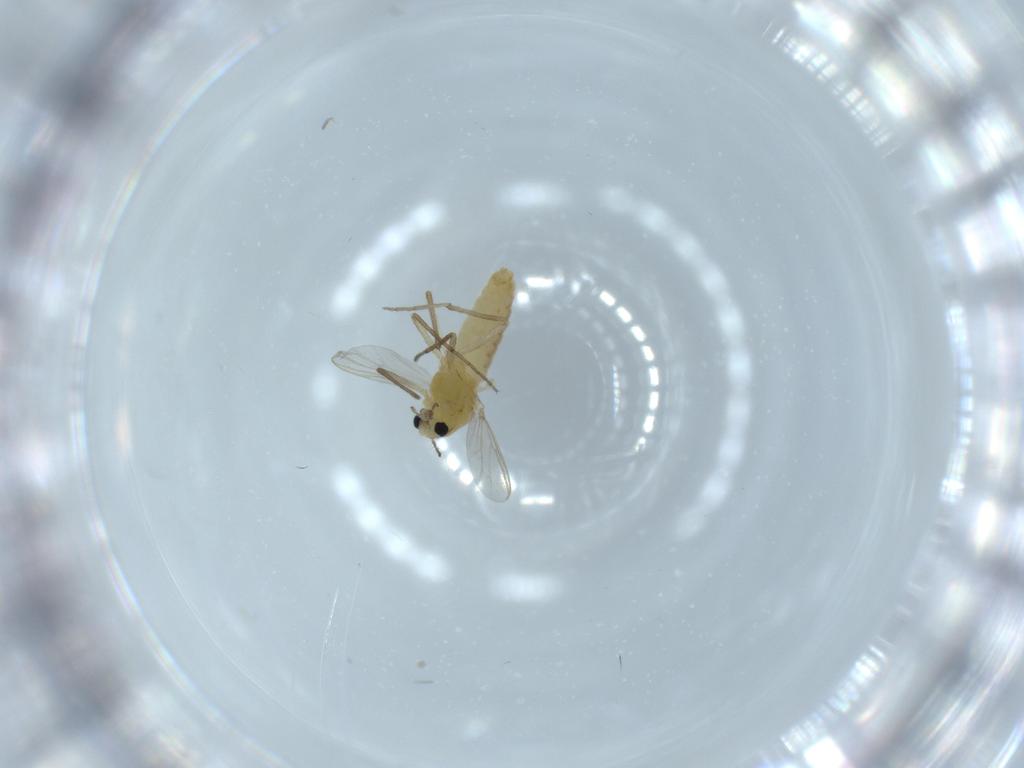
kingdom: Animalia
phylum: Arthropoda
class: Insecta
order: Diptera
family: Chironomidae
